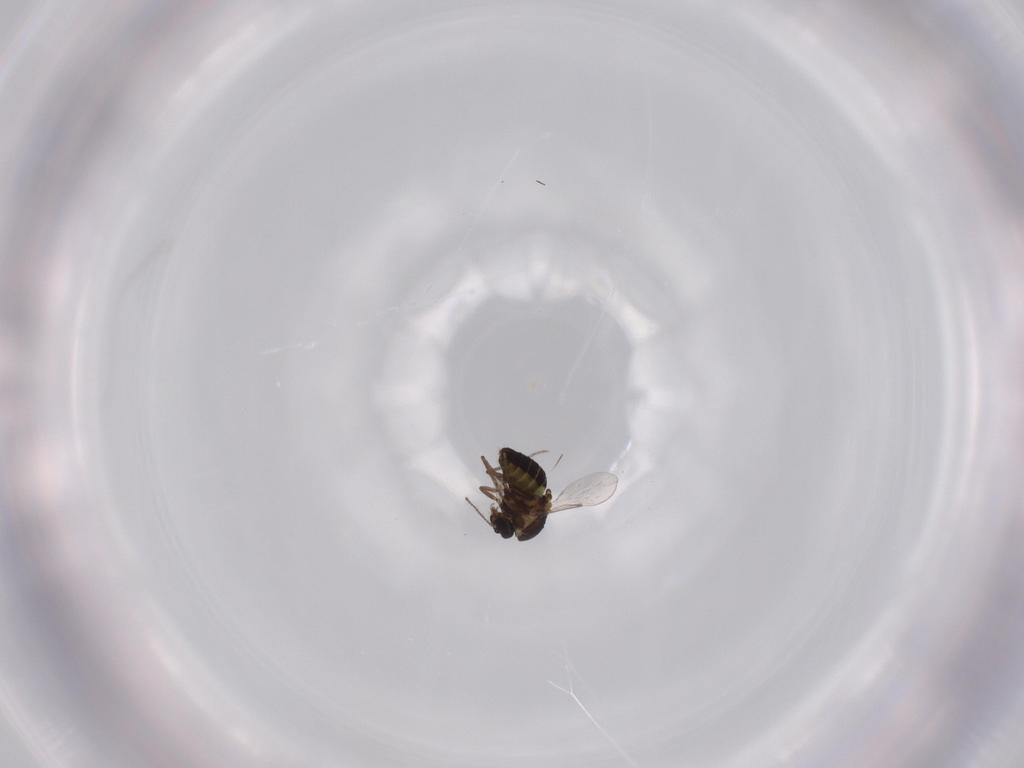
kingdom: Animalia
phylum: Arthropoda
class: Insecta
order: Diptera
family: Ceratopogonidae
